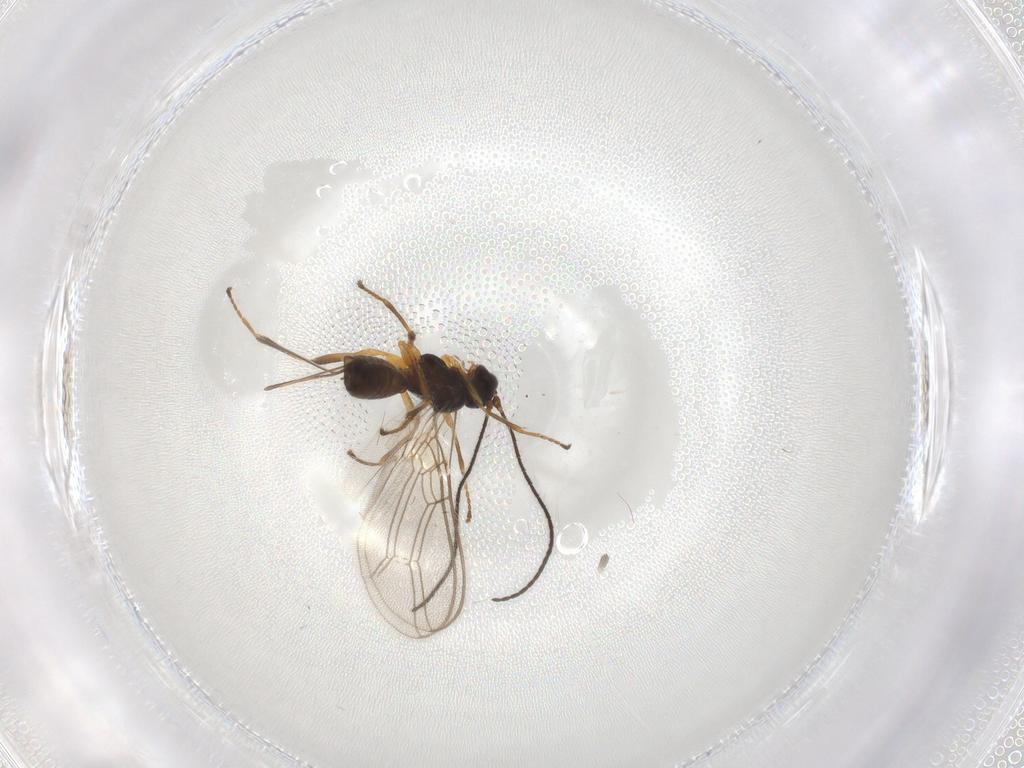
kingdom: Animalia
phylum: Arthropoda
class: Insecta
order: Hymenoptera
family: Braconidae
